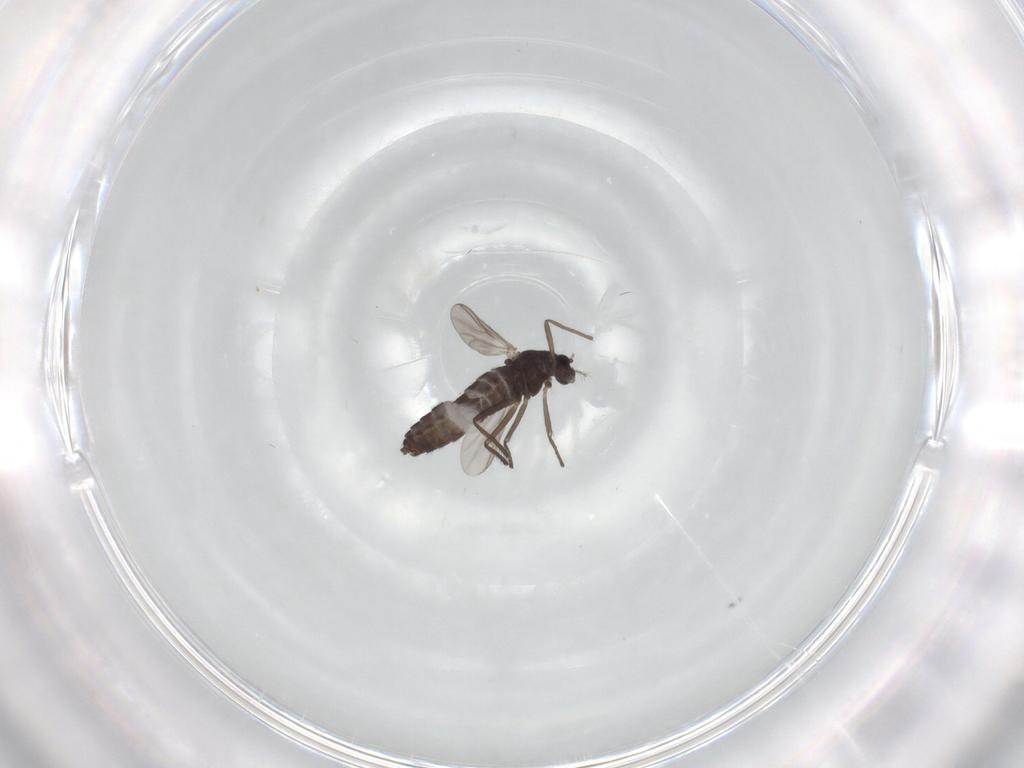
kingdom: Animalia
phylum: Arthropoda
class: Insecta
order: Diptera
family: Chironomidae
